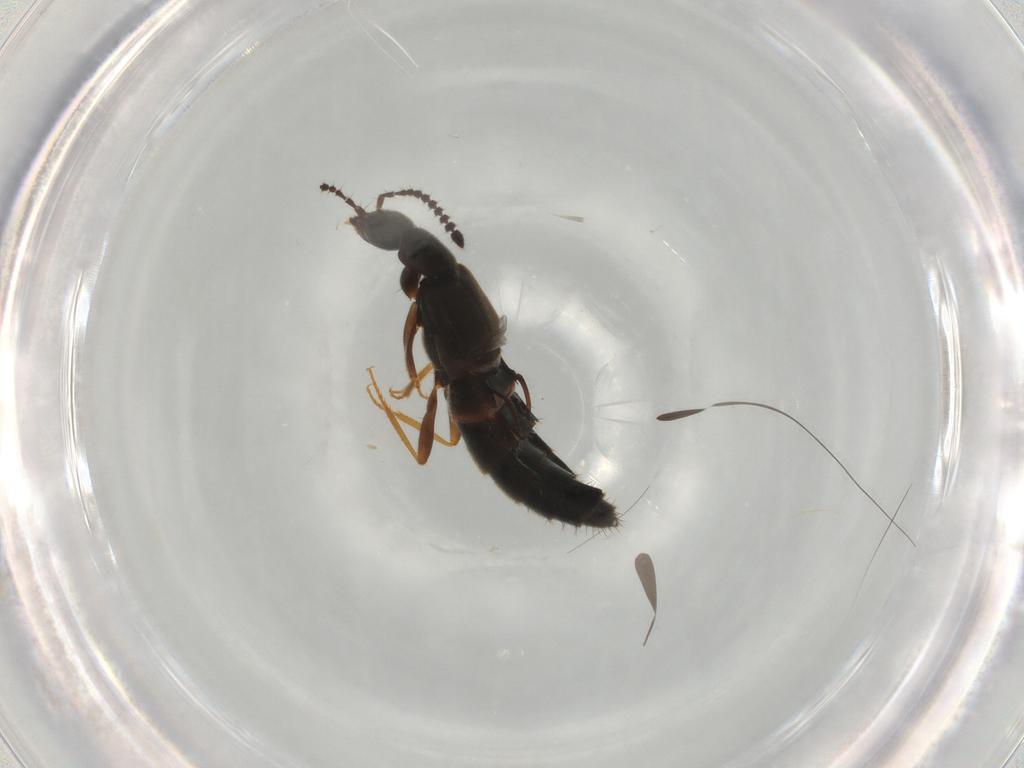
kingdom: Animalia
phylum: Arthropoda
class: Insecta
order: Coleoptera
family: Staphylinidae
